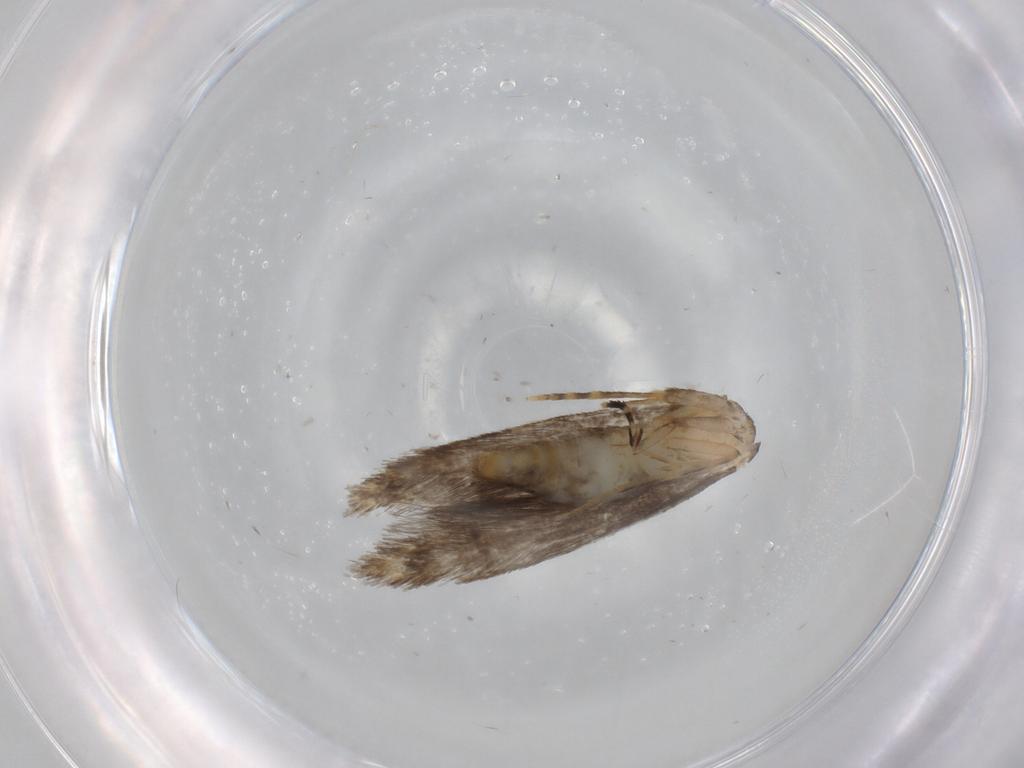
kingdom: Animalia
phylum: Arthropoda
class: Insecta
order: Lepidoptera
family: Tineidae
